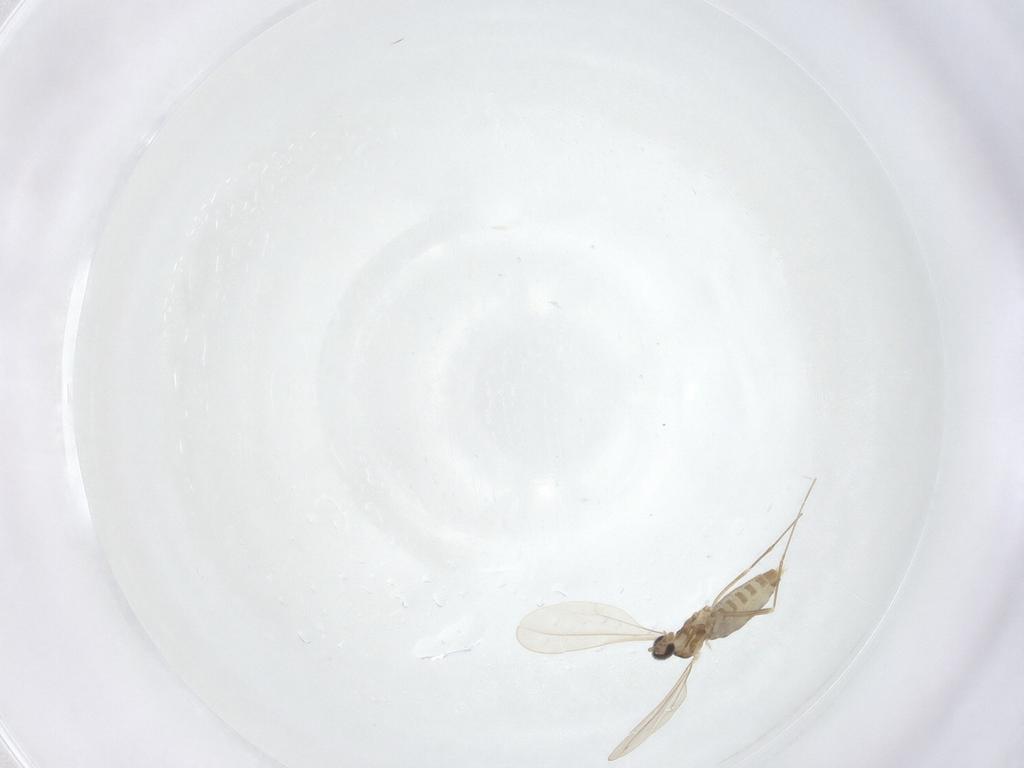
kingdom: Animalia
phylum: Arthropoda
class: Insecta
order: Diptera
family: Cecidomyiidae
